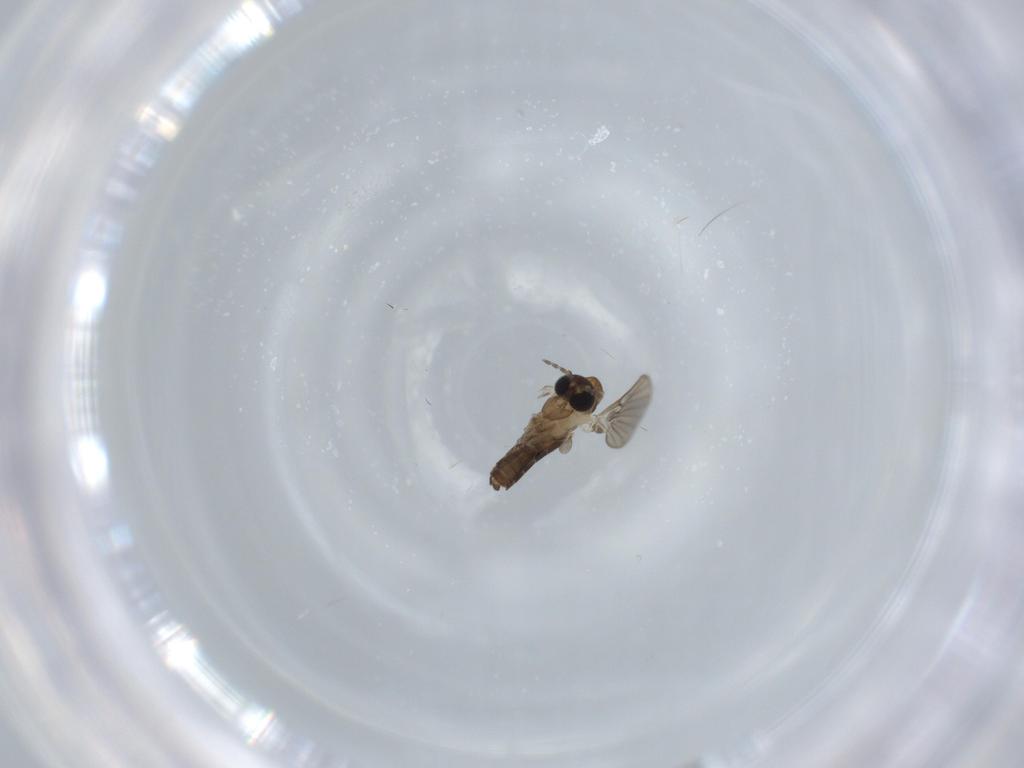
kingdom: Animalia
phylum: Arthropoda
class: Insecta
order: Diptera
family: Psychodidae
